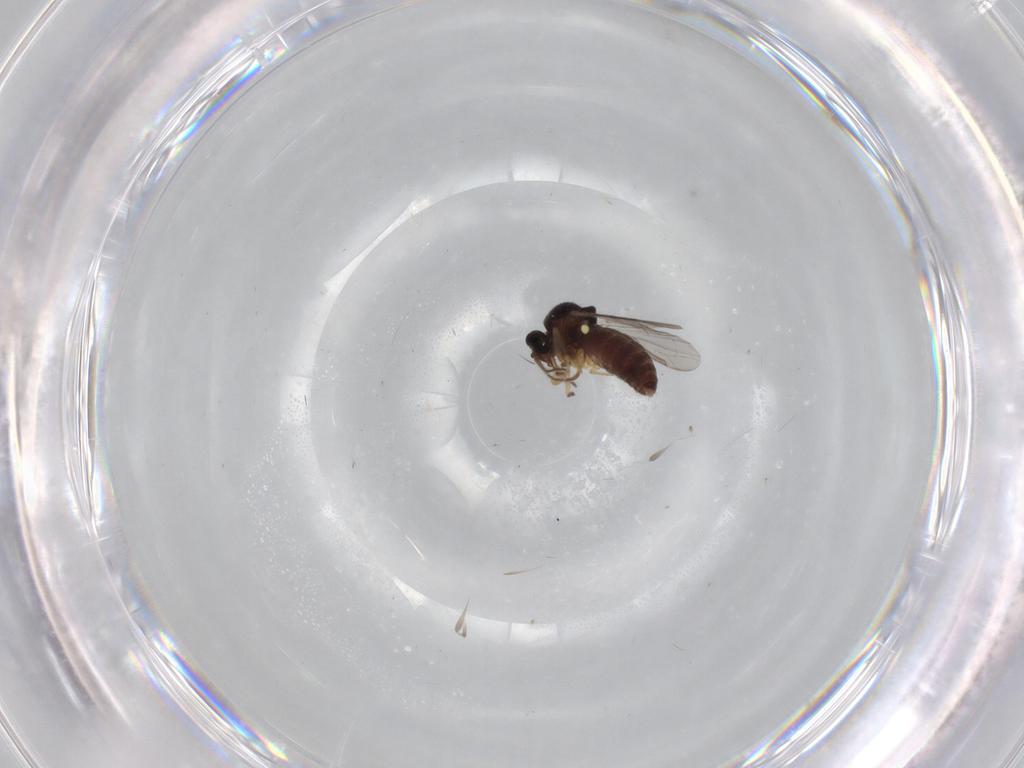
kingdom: Animalia
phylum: Arthropoda
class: Insecta
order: Diptera
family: Ceratopogonidae
